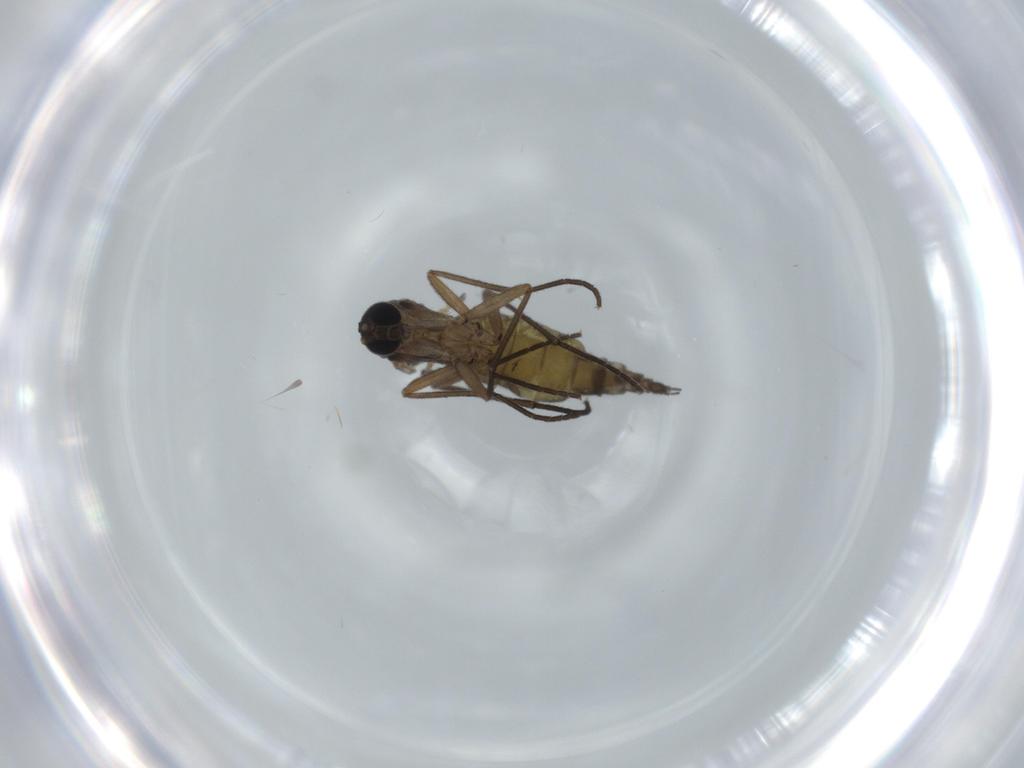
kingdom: Animalia
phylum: Arthropoda
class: Insecta
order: Diptera
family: Sciaridae
